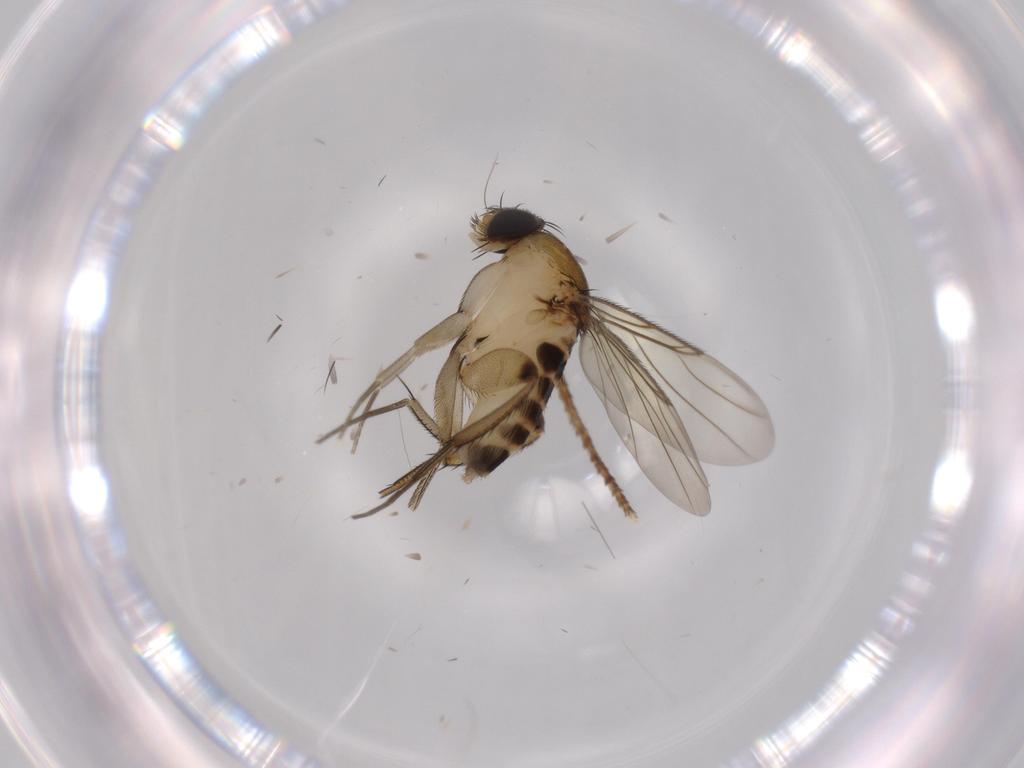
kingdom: Animalia
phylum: Arthropoda
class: Insecta
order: Diptera
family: Phoridae
